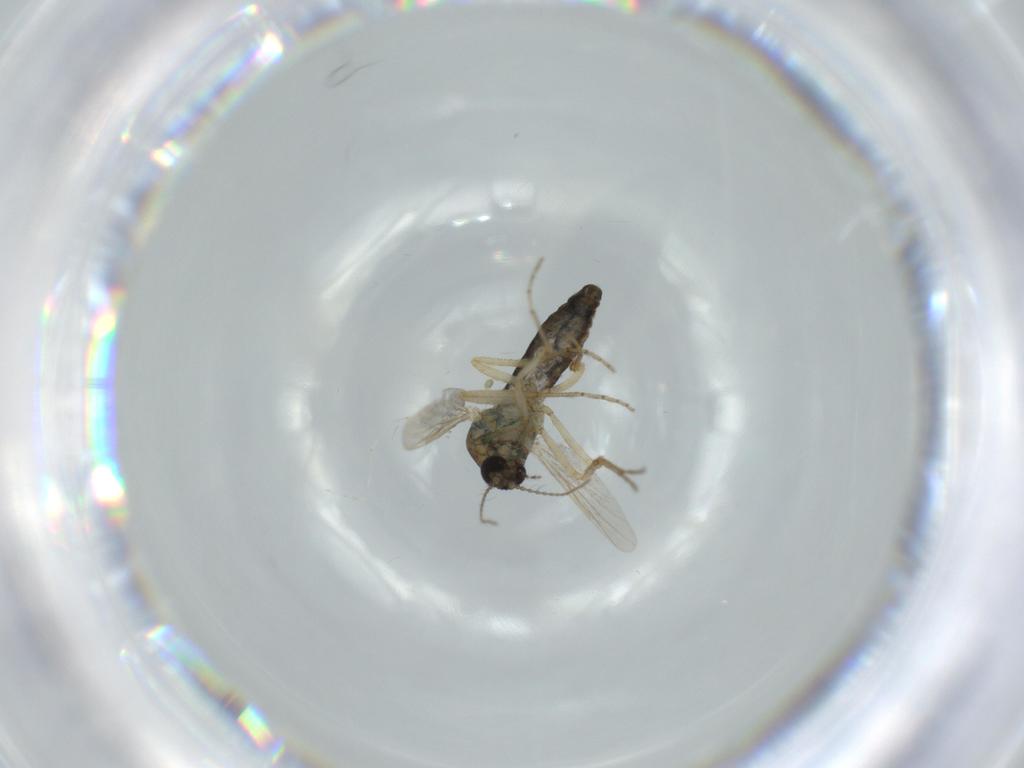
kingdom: Animalia
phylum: Arthropoda
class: Insecta
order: Diptera
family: Ceratopogonidae
